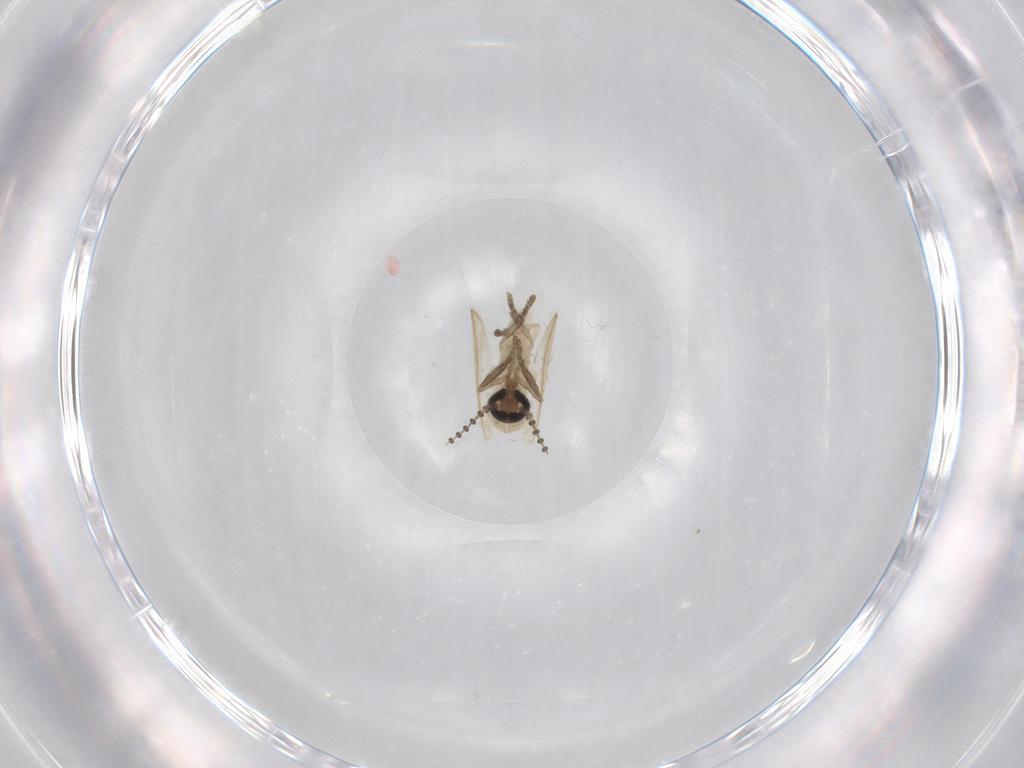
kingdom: Animalia
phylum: Arthropoda
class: Insecta
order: Diptera
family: Psychodidae
